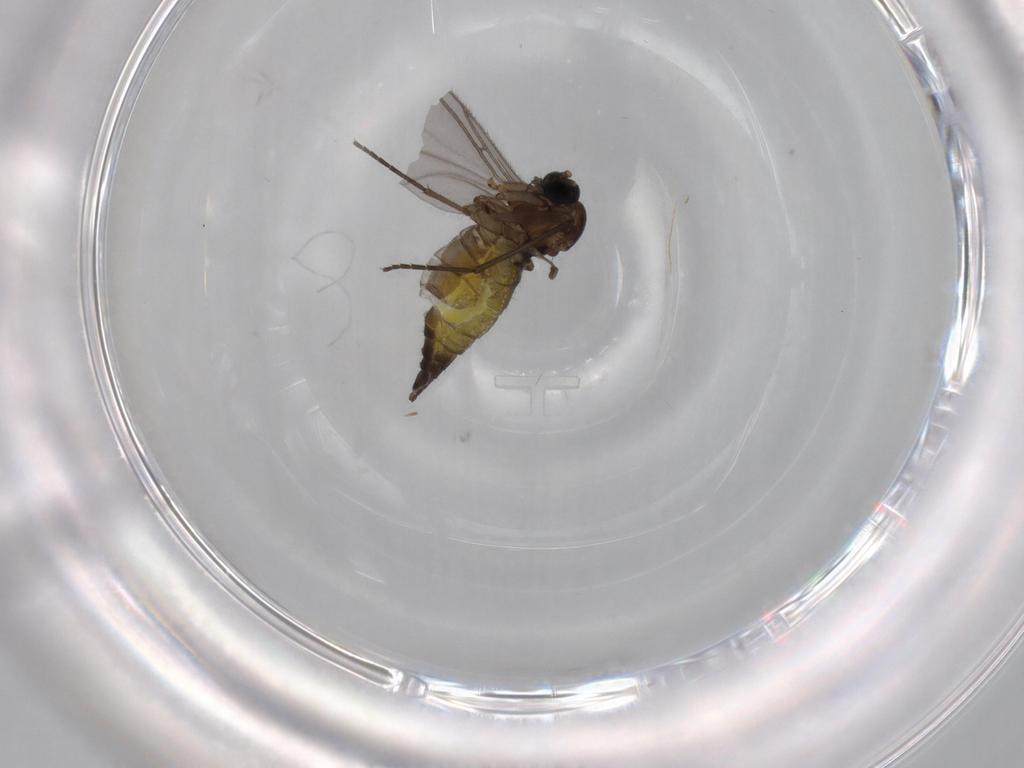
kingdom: Animalia
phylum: Arthropoda
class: Insecta
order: Diptera
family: Sciaridae
